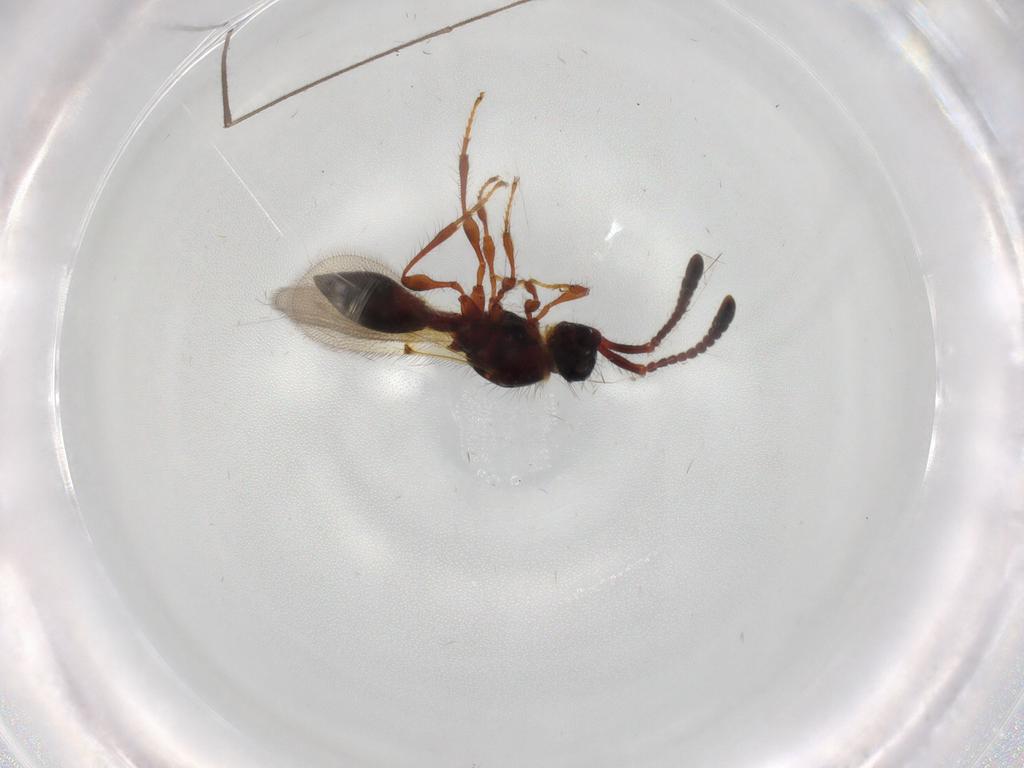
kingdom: Animalia
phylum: Arthropoda
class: Insecta
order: Hymenoptera
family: Diapriidae
